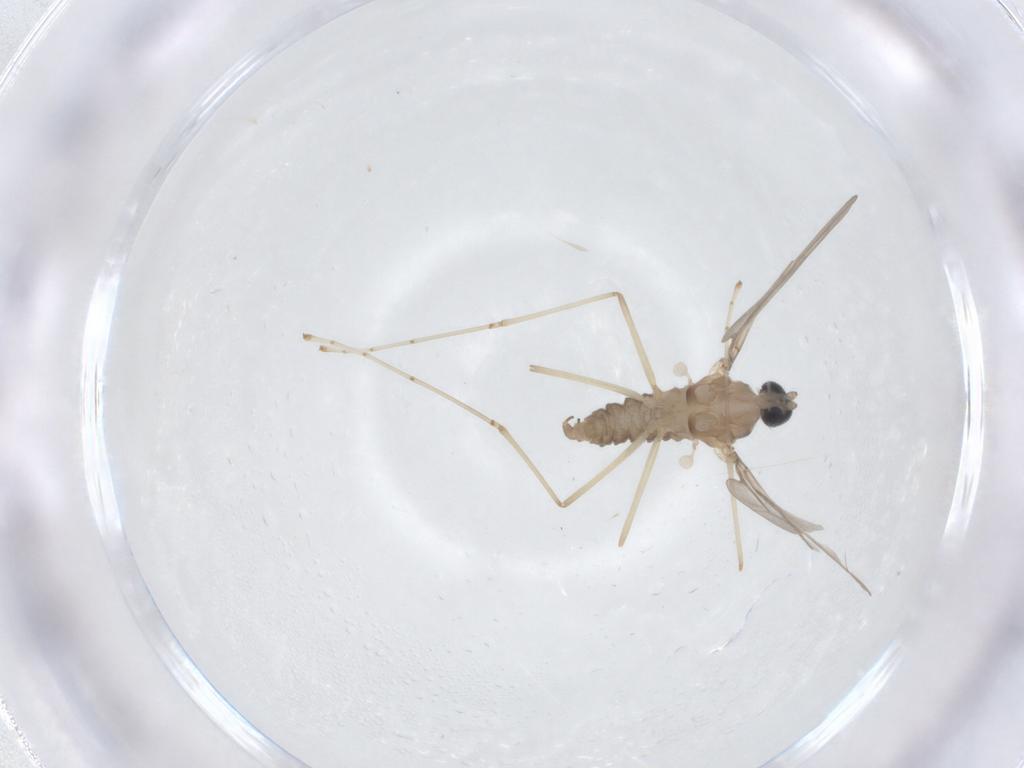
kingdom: Animalia
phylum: Arthropoda
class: Insecta
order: Diptera
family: Cecidomyiidae
